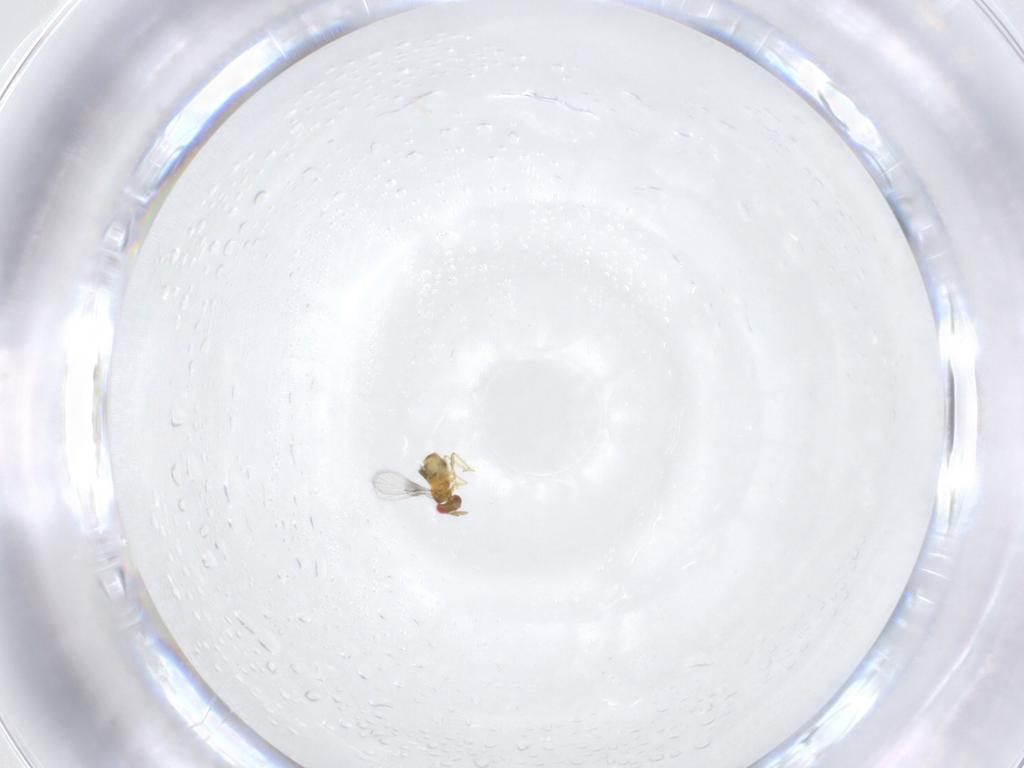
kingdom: Animalia
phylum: Arthropoda
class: Insecta
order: Hymenoptera
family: Trichogrammatidae
